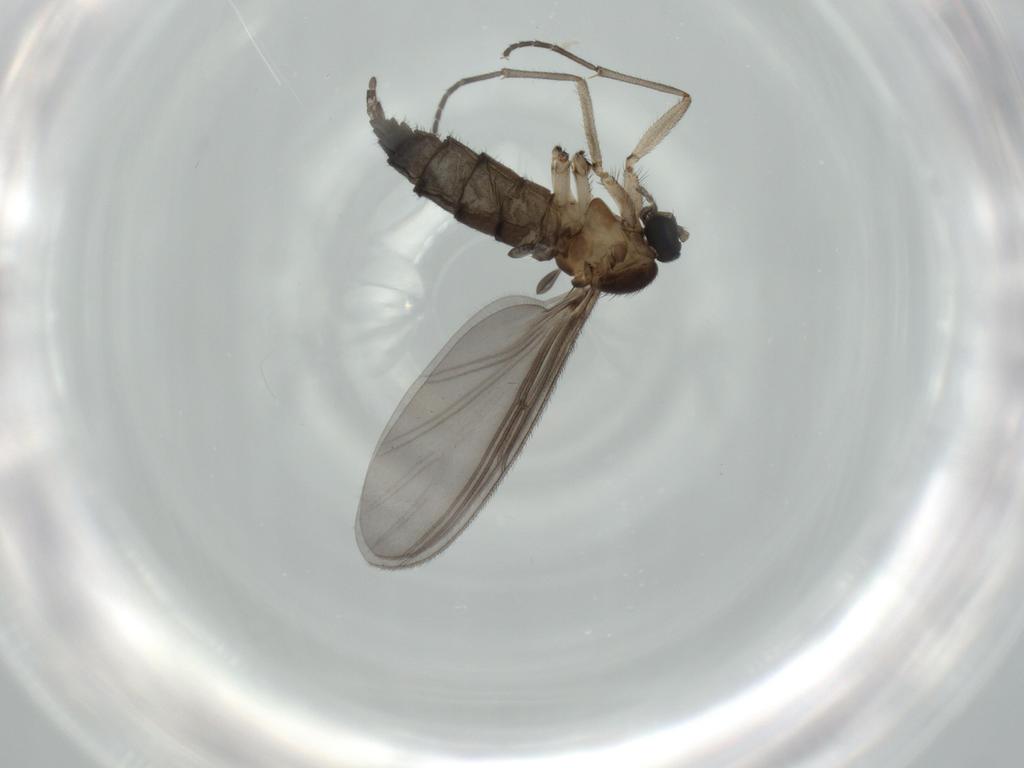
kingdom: Animalia
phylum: Arthropoda
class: Insecta
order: Diptera
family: Cecidomyiidae
